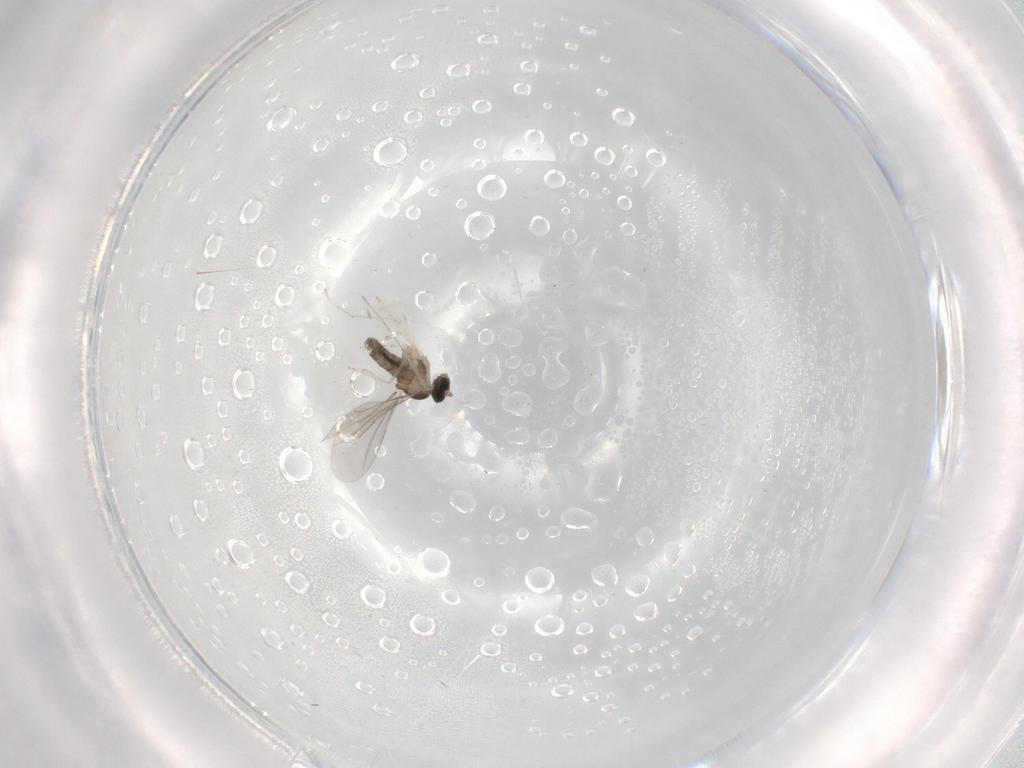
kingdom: Animalia
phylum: Arthropoda
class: Insecta
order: Diptera
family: Cecidomyiidae
